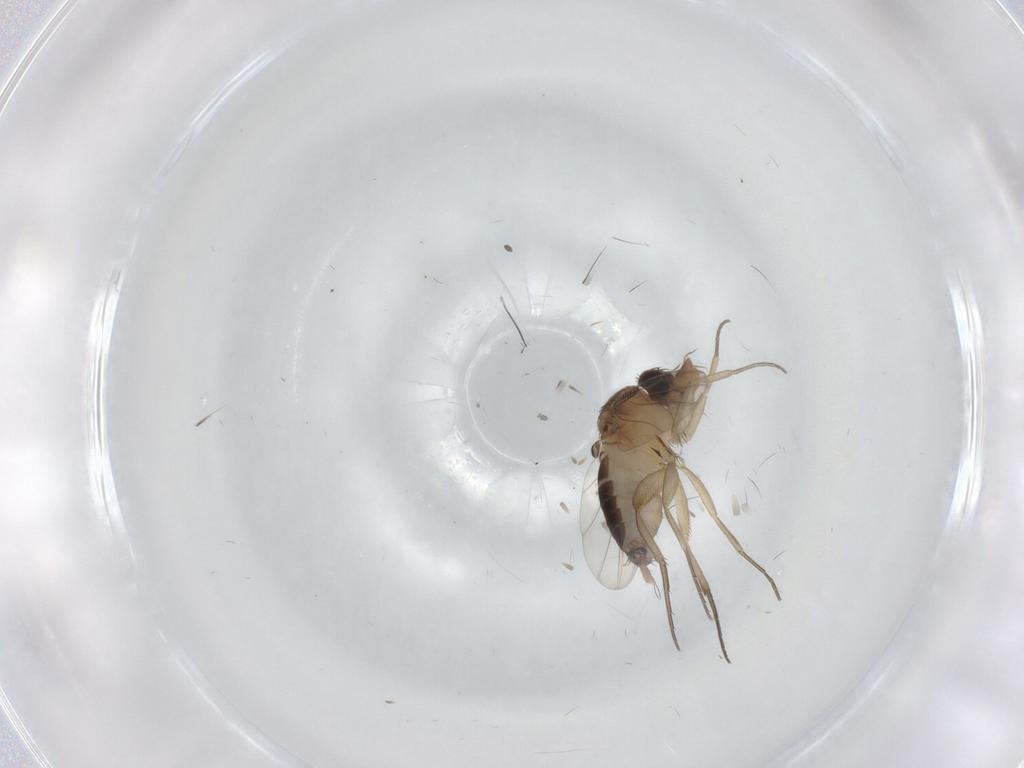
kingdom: Animalia
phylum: Arthropoda
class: Insecta
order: Diptera
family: Phoridae
